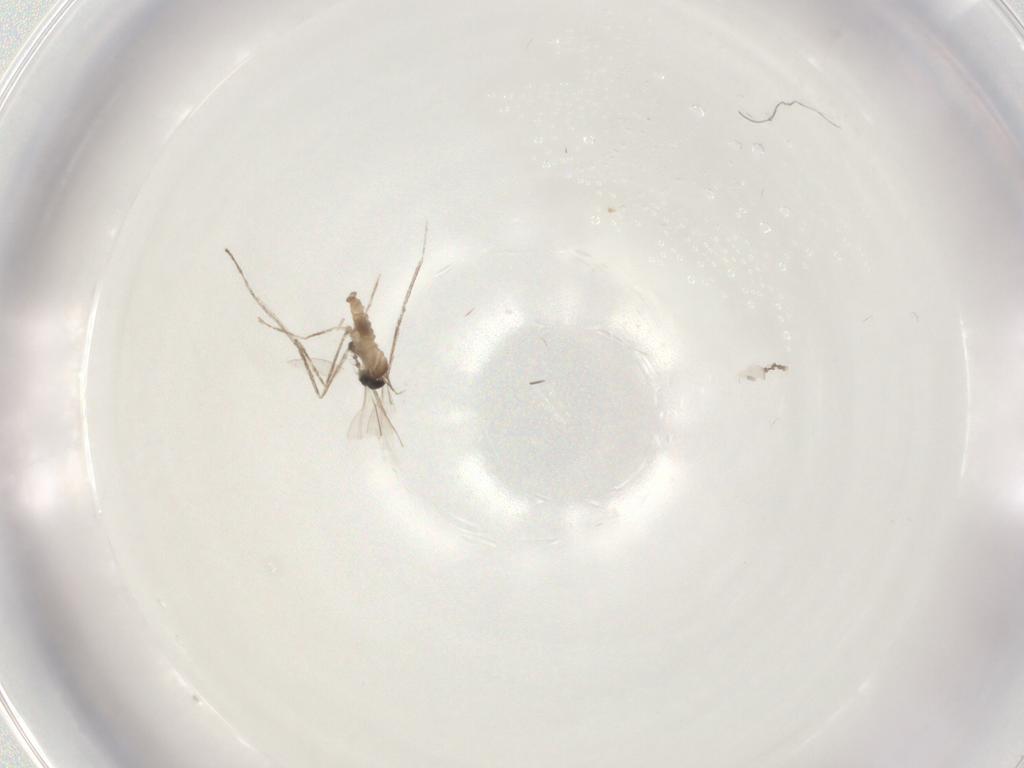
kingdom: Animalia
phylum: Arthropoda
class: Insecta
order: Diptera
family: Cecidomyiidae
